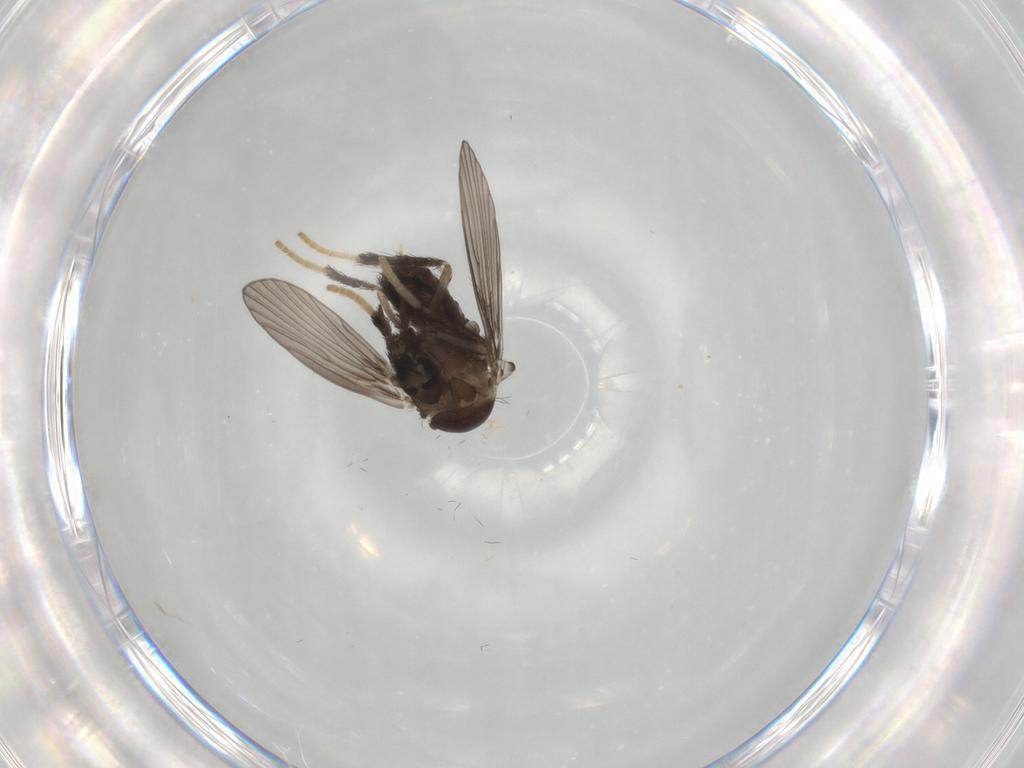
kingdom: Animalia
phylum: Arthropoda
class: Insecta
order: Diptera
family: Psychodidae
